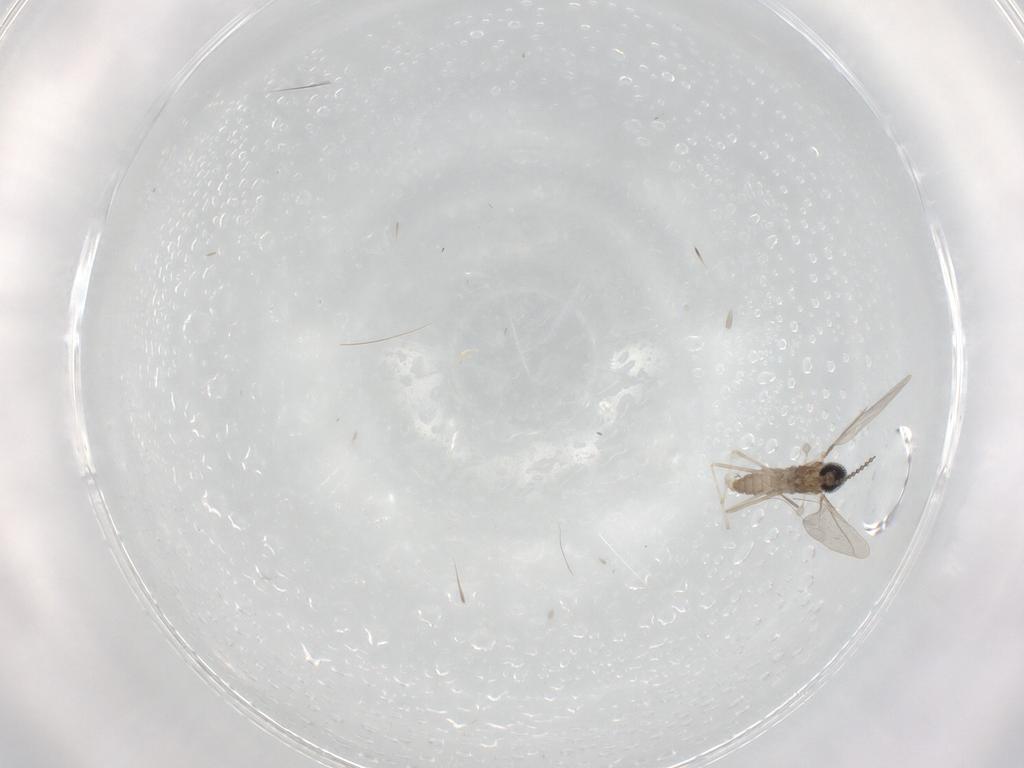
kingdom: Animalia
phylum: Arthropoda
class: Insecta
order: Diptera
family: Cecidomyiidae
